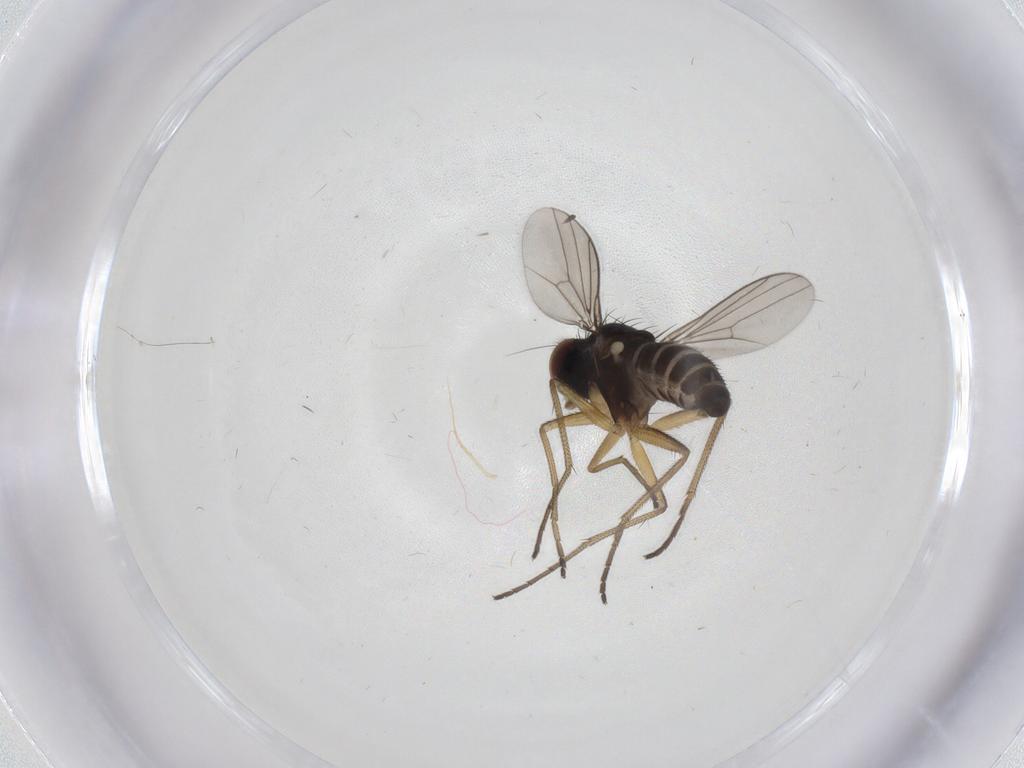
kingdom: Animalia
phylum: Arthropoda
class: Insecta
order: Diptera
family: Dolichopodidae
